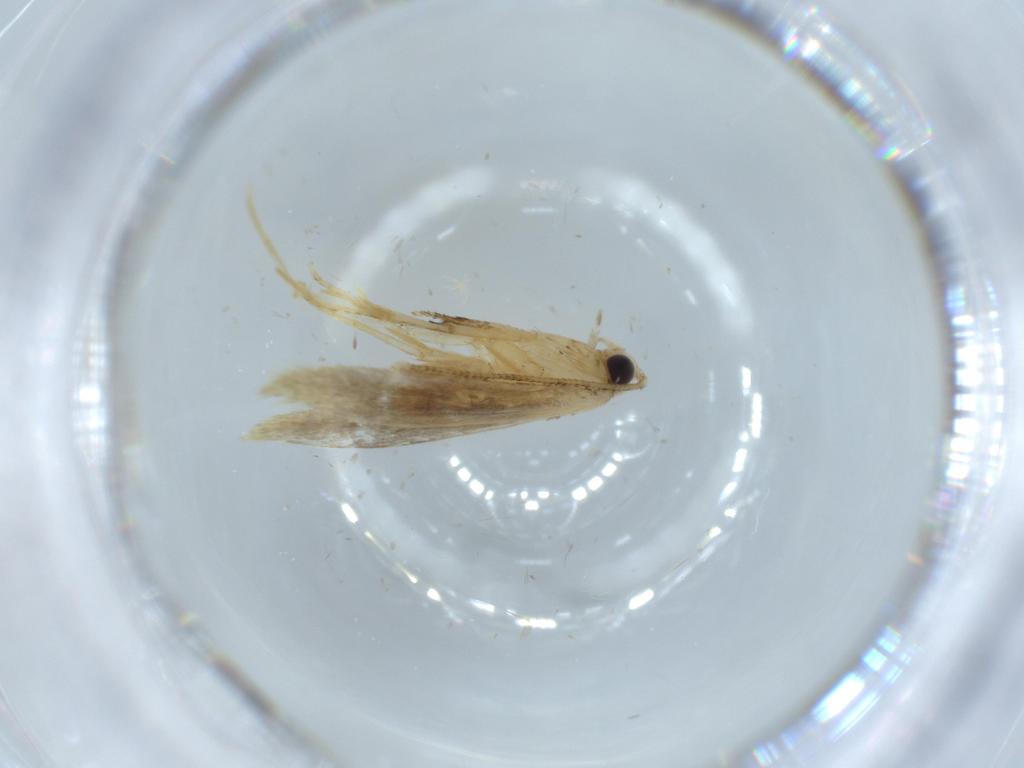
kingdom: Animalia
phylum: Arthropoda
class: Insecta
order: Lepidoptera
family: Tineidae
